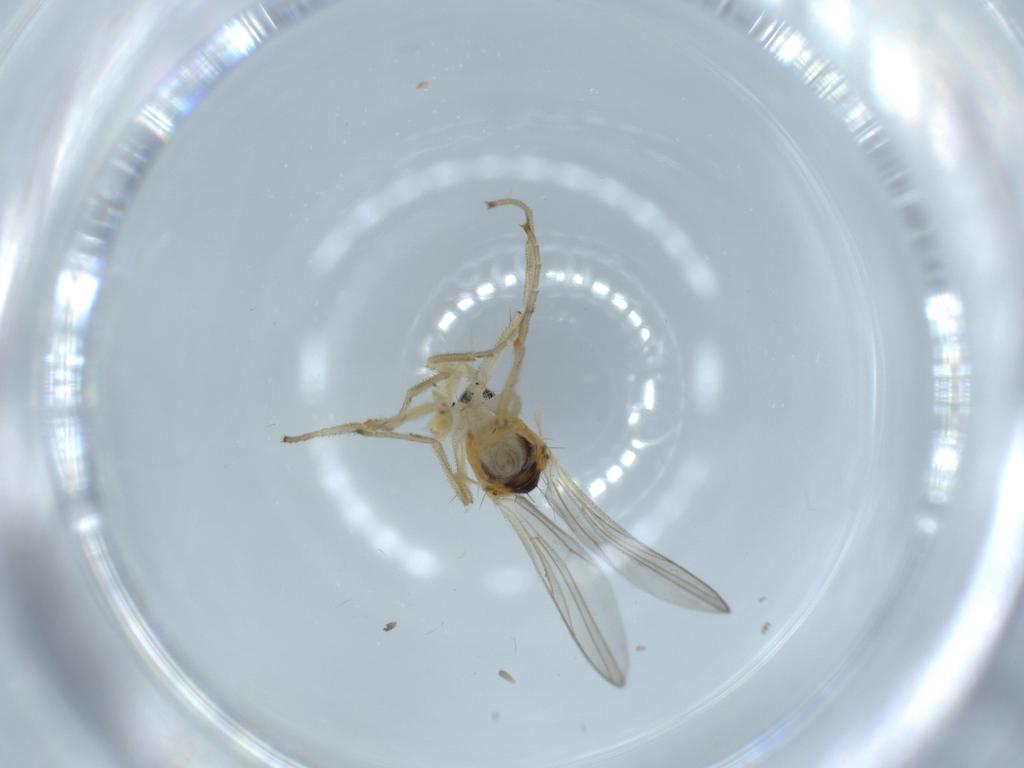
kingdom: Animalia
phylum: Arthropoda
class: Insecta
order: Diptera
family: Hybotidae
